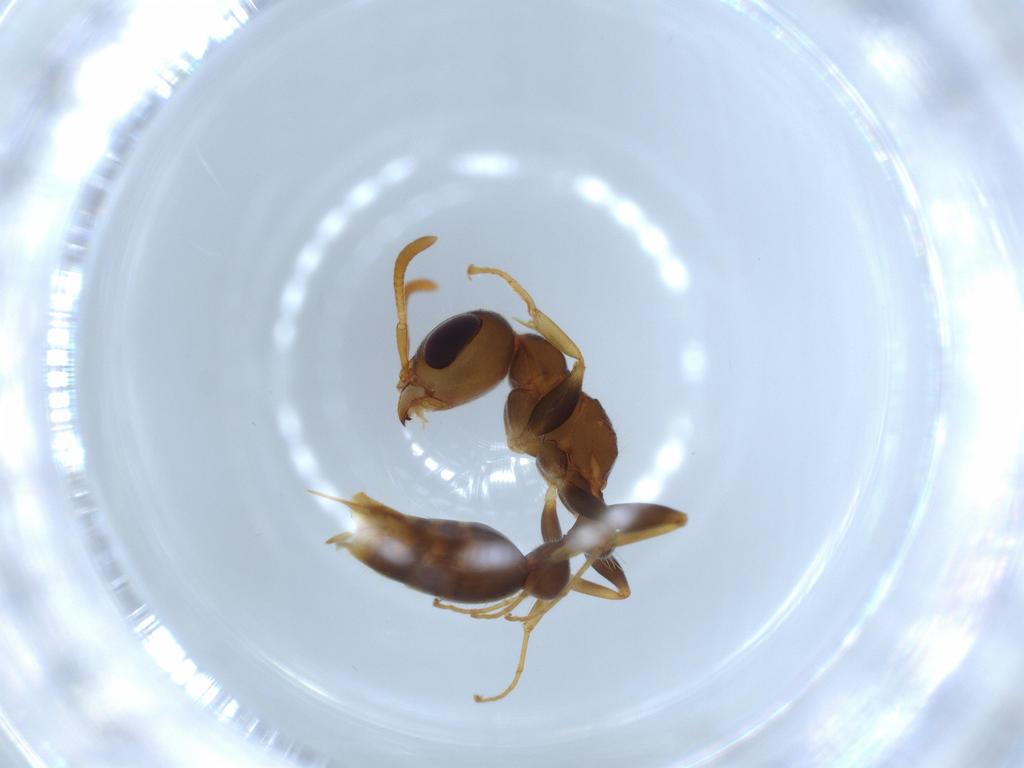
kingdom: Animalia
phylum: Arthropoda
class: Insecta
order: Hymenoptera
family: Formicidae
